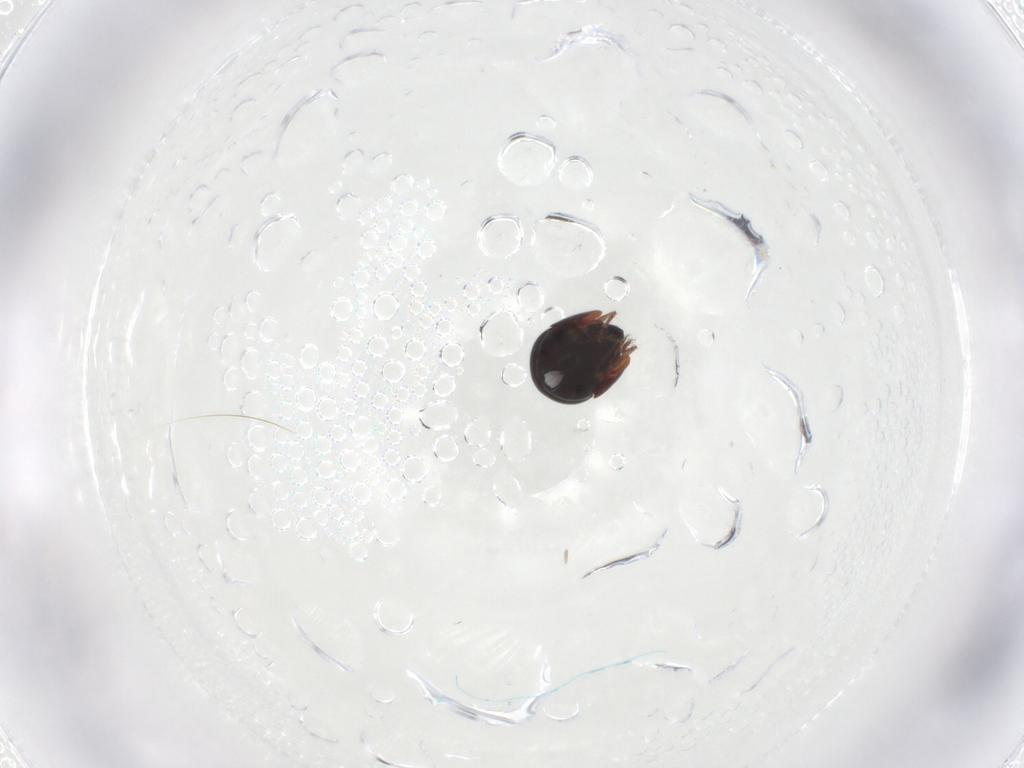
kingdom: Animalia
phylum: Arthropoda
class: Arachnida
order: Sarcoptiformes
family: Galumnidae
